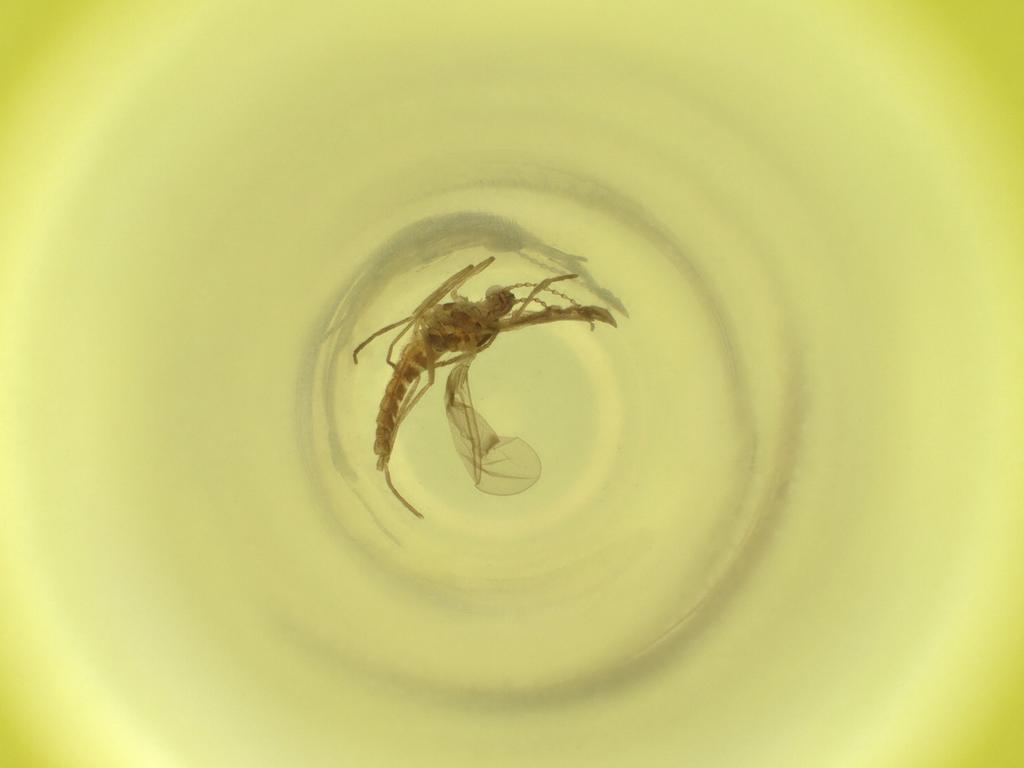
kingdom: Animalia
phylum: Arthropoda
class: Insecta
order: Diptera
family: Cecidomyiidae
